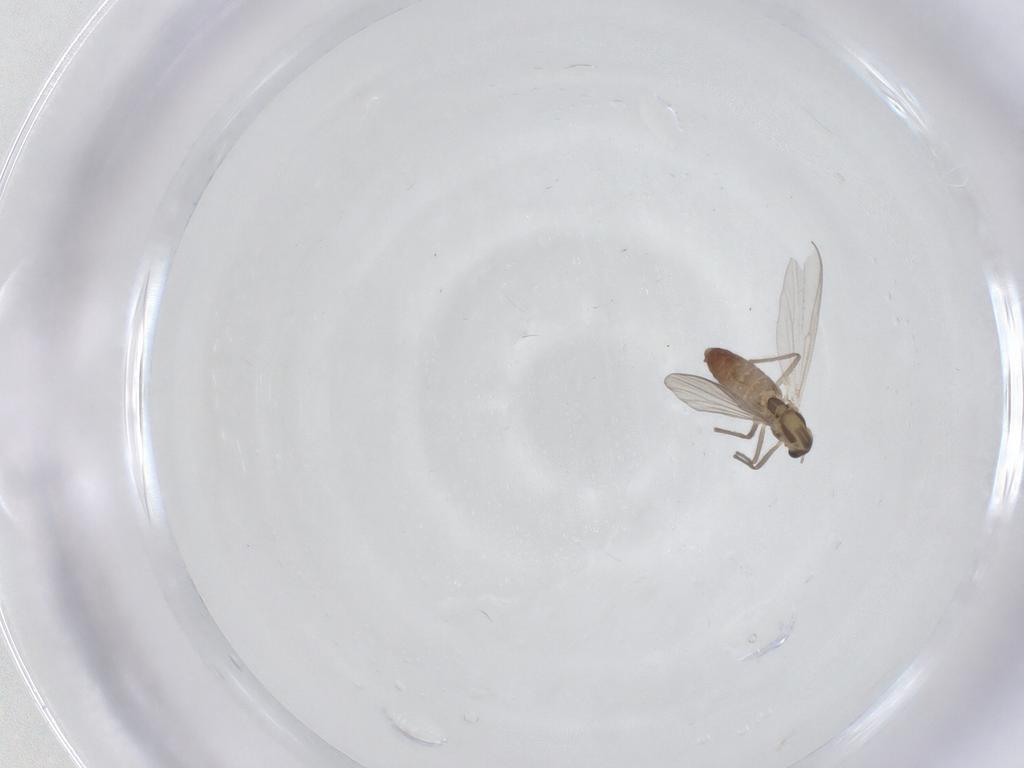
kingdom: Animalia
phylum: Arthropoda
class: Insecta
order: Diptera
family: Chironomidae
